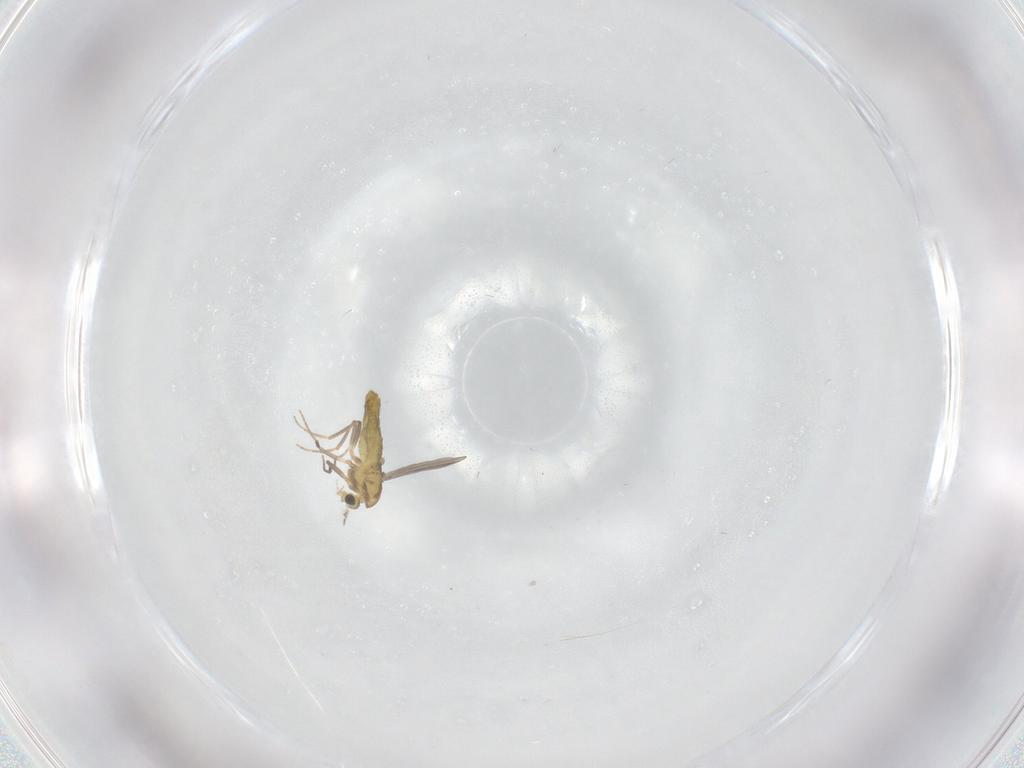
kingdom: Animalia
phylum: Arthropoda
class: Insecta
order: Diptera
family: Chironomidae
